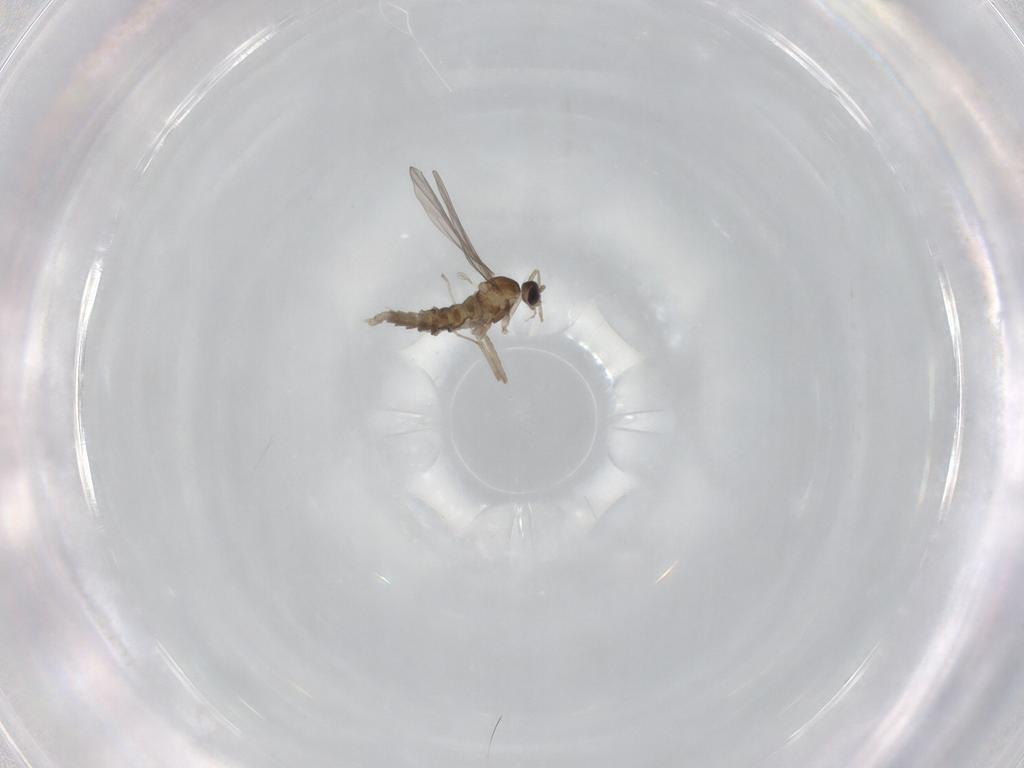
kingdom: Animalia
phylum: Arthropoda
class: Insecta
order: Diptera
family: Cecidomyiidae
